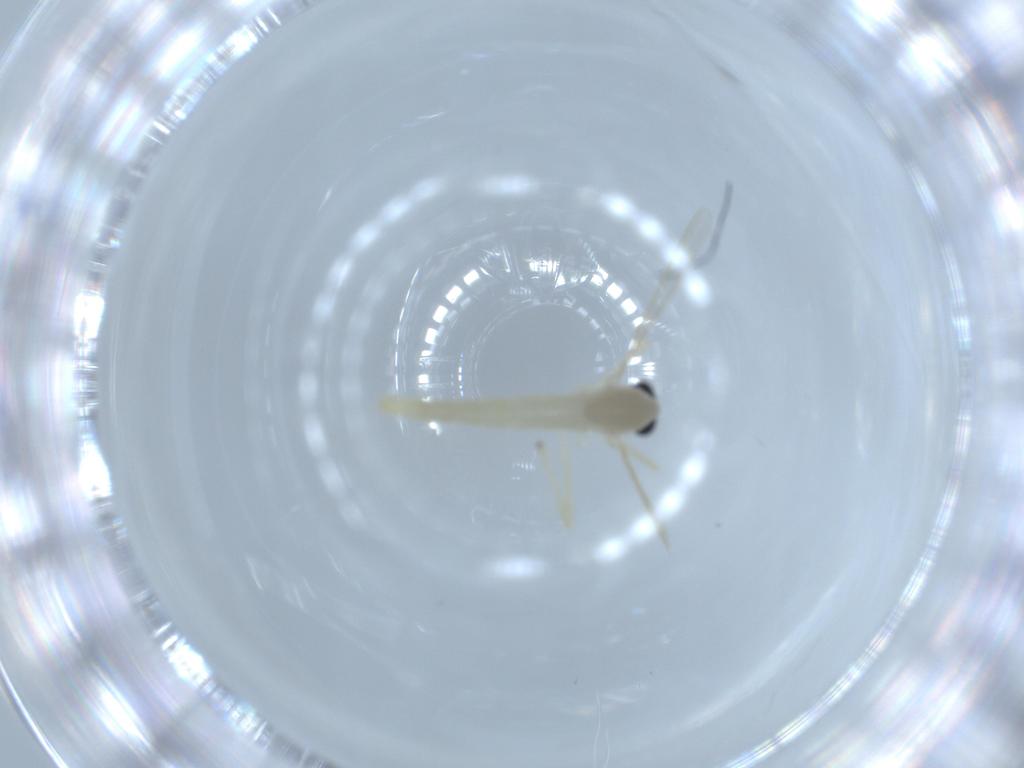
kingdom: Animalia
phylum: Arthropoda
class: Insecta
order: Diptera
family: Chironomidae
